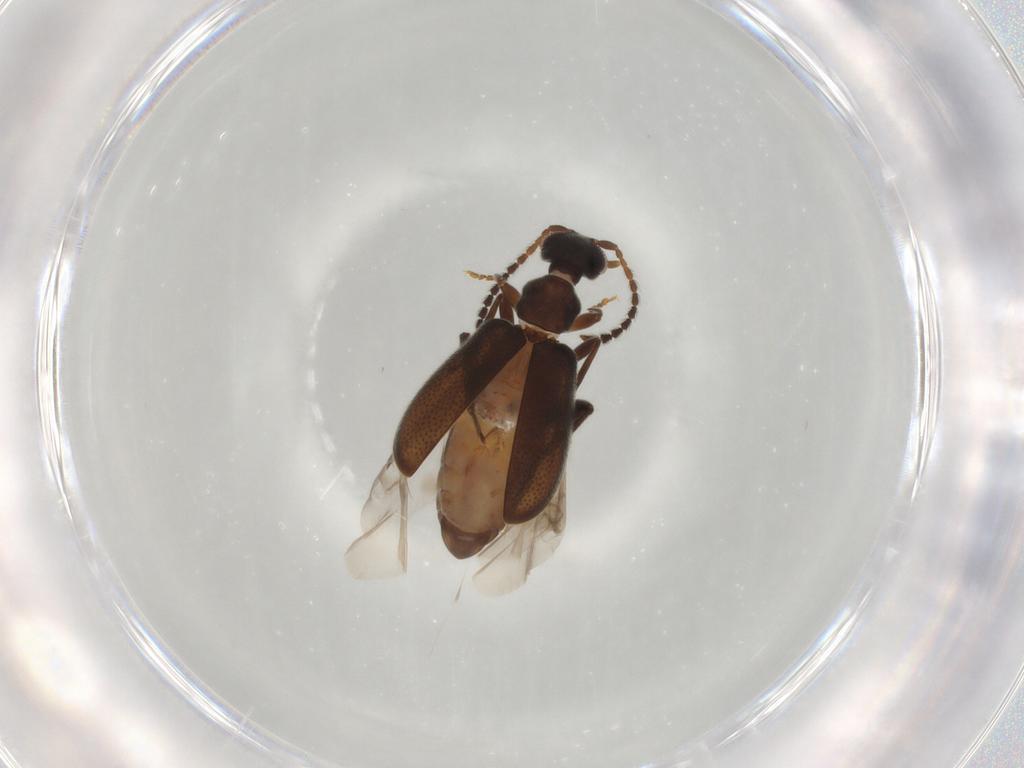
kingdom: Animalia
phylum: Arthropoda
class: Insecta
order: Coleoptera
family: Aderidae
